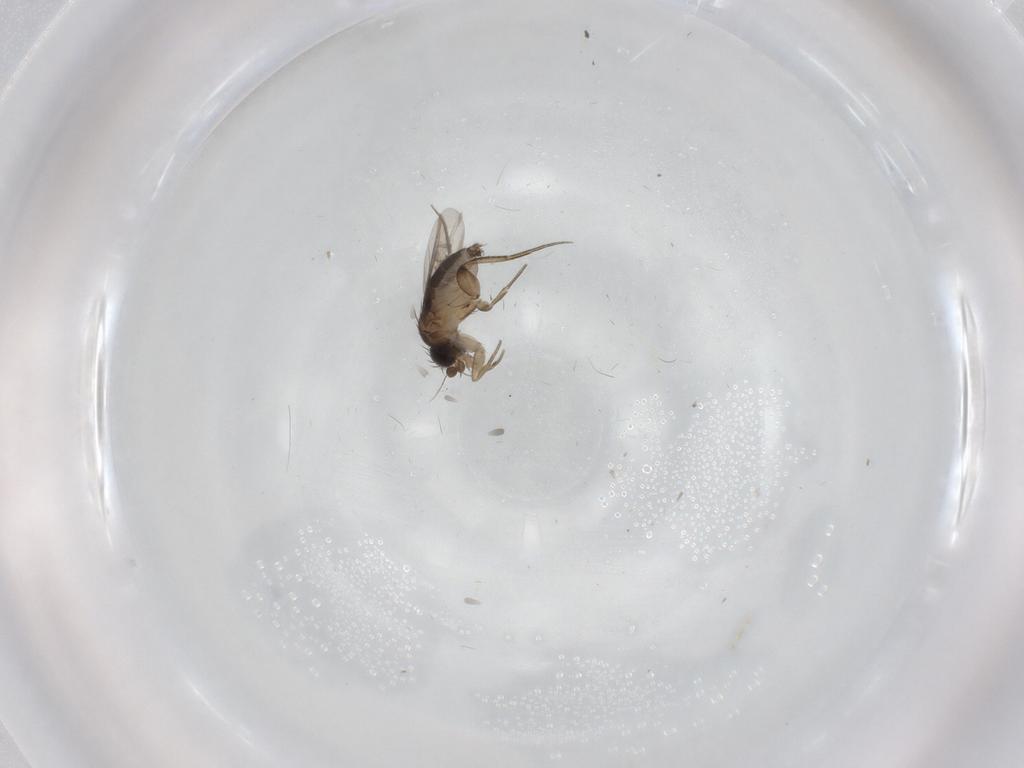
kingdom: Animalia
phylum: Arthropoda
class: Insecta
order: Diptera
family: Phoridae
